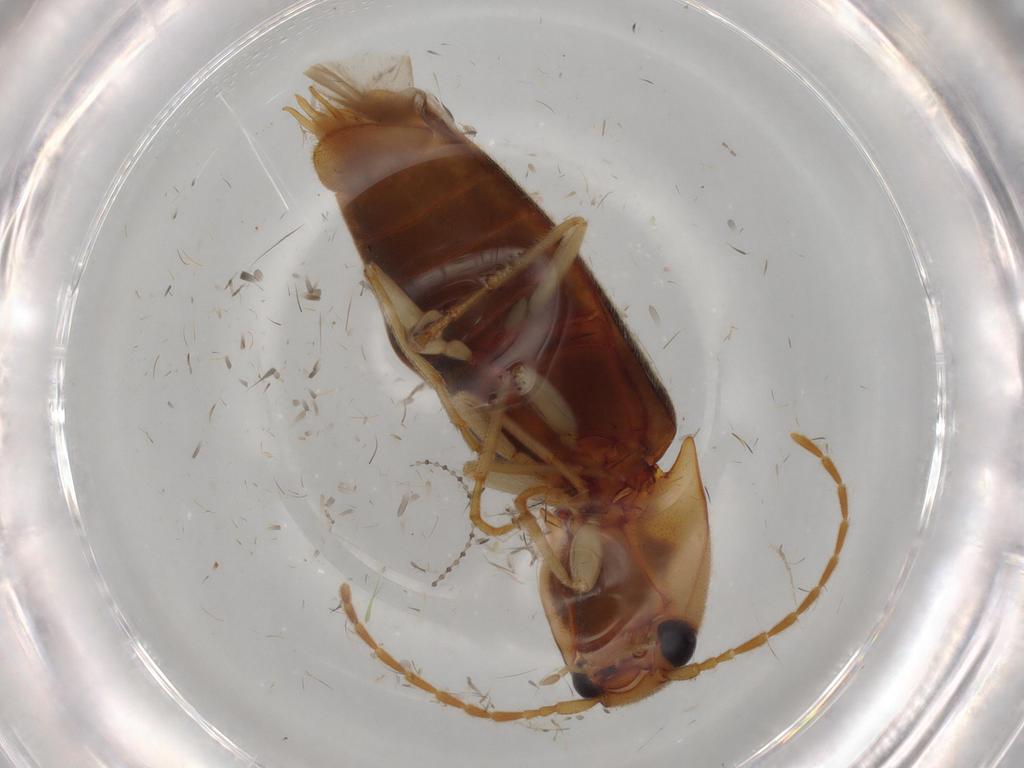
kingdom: Animalia
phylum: Arthropoda
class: Insecta
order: Coleoptera
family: Elateridae
